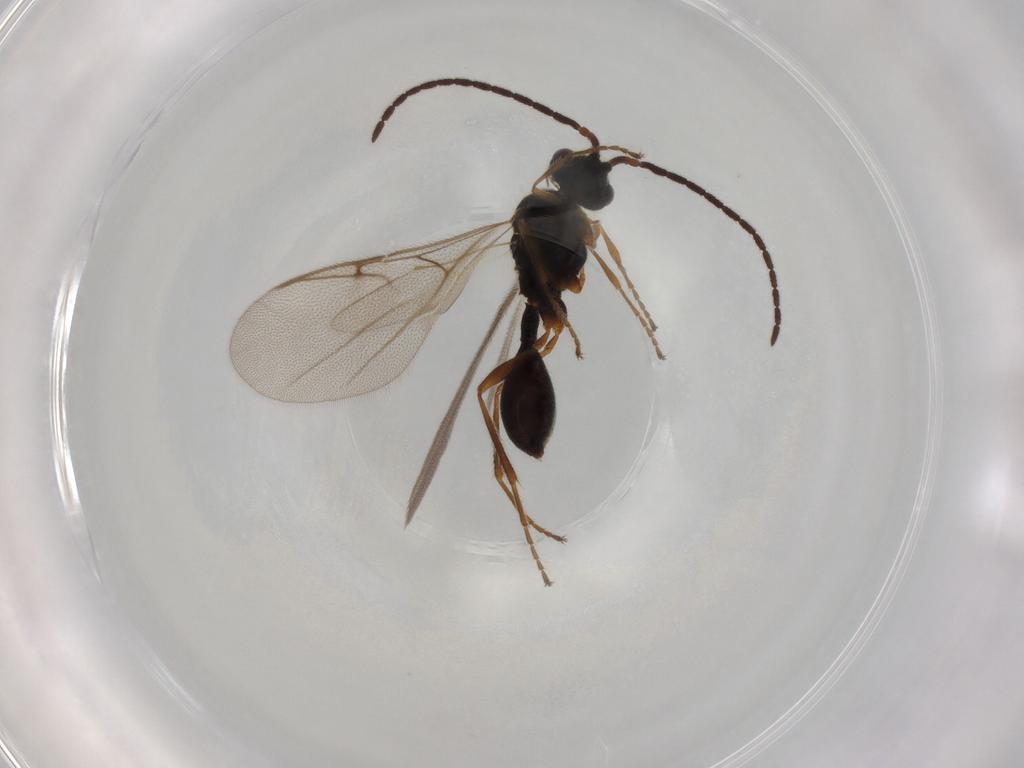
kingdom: Animalia
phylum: Arthropoda
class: Insecta
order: Hymenoptera
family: Braconidae
